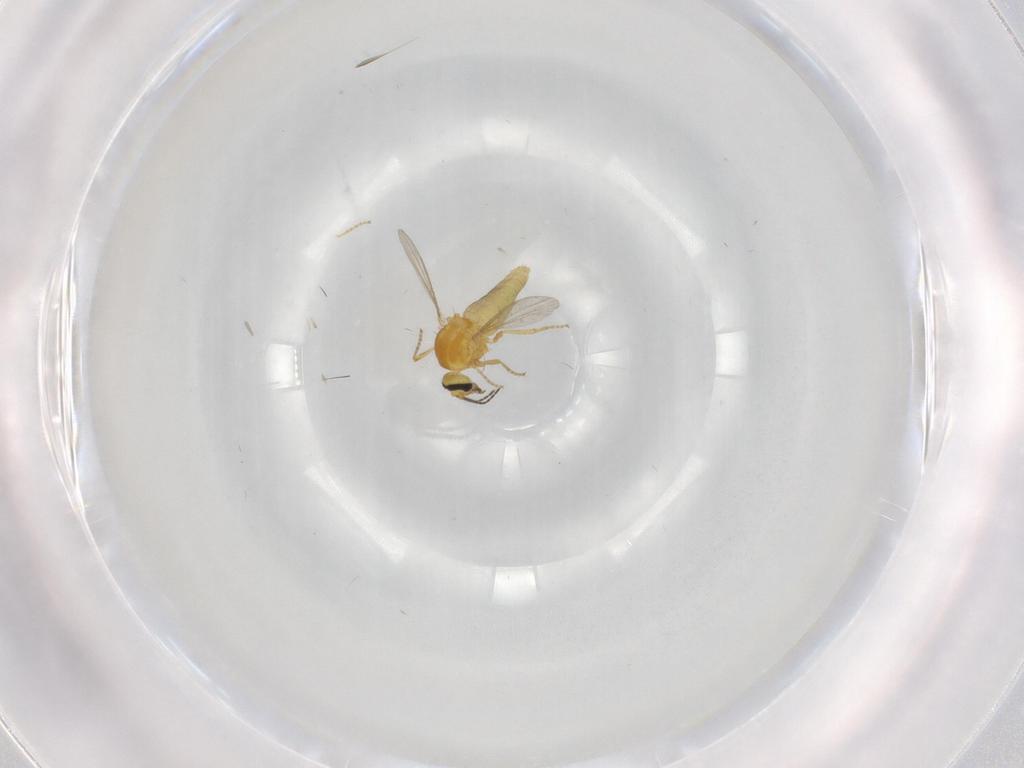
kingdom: Animalia
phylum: Arthropoda
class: Insecta
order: Diptera
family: Ceratopogonidae
